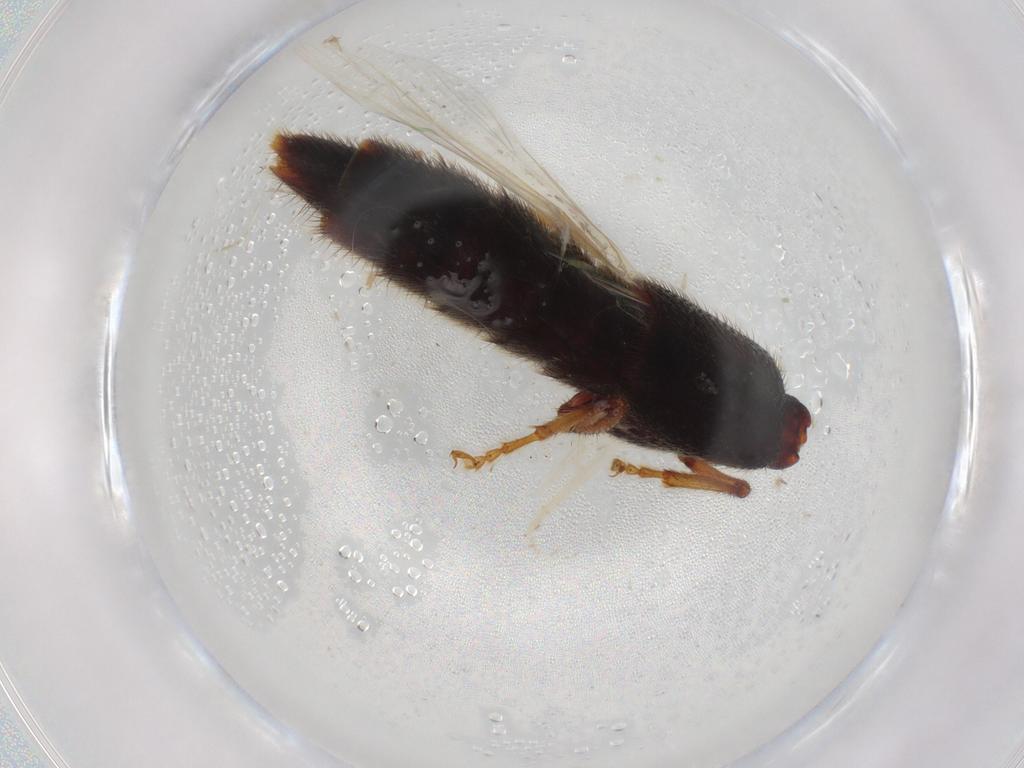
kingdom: Animalia
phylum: Arthropoda
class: Insecta
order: Coleoptera
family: Staphylinidae
